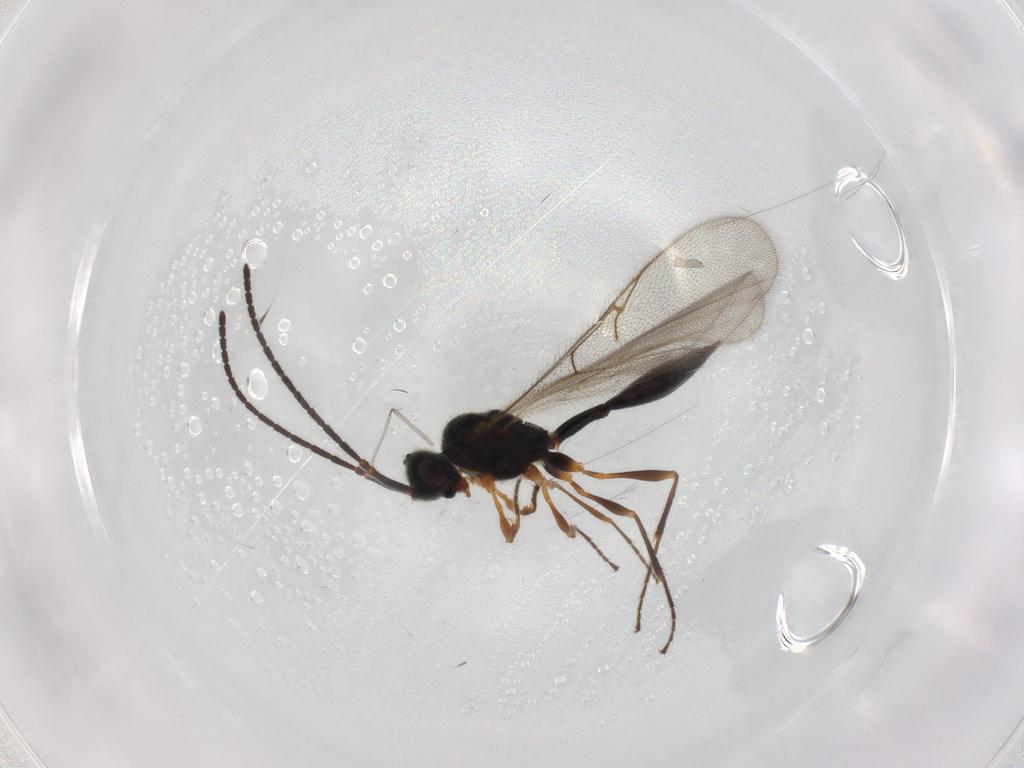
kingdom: Animalia
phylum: Arthropoda
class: Insecta
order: Hymenoptera
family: Diapriidae
